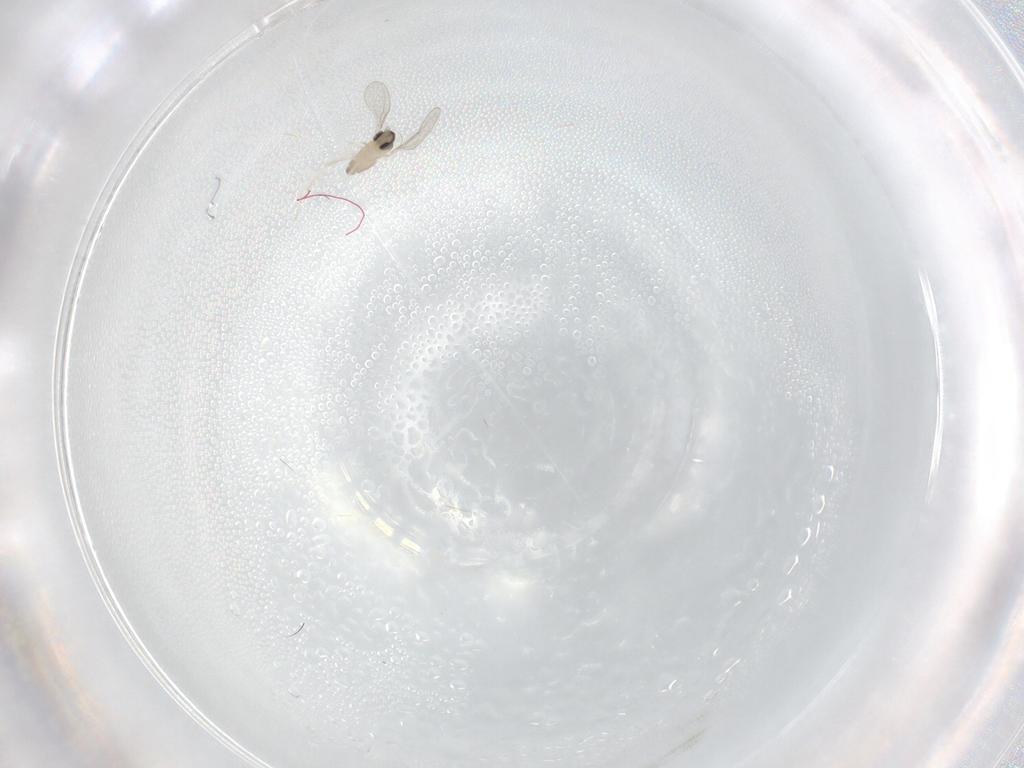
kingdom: Animalia
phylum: Arthropoda
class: Insecta
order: Diptera
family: Cecidomyiidae
